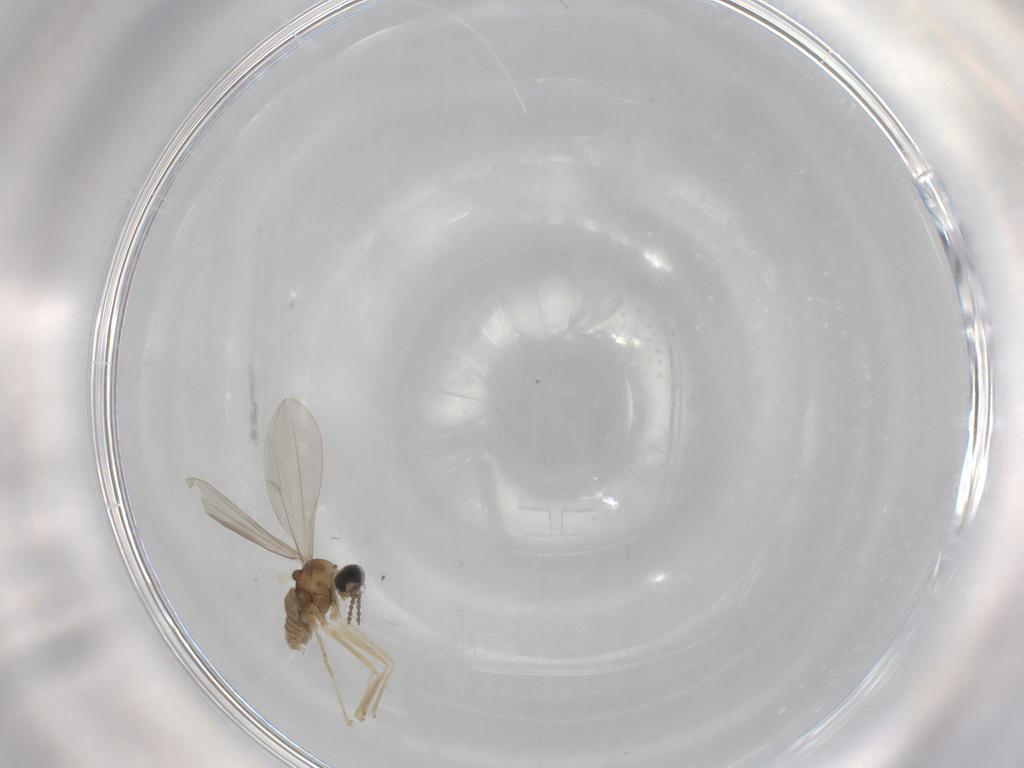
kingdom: Animalia
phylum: Arthropoda
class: Insecta
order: Diptera
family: Chironomidae
